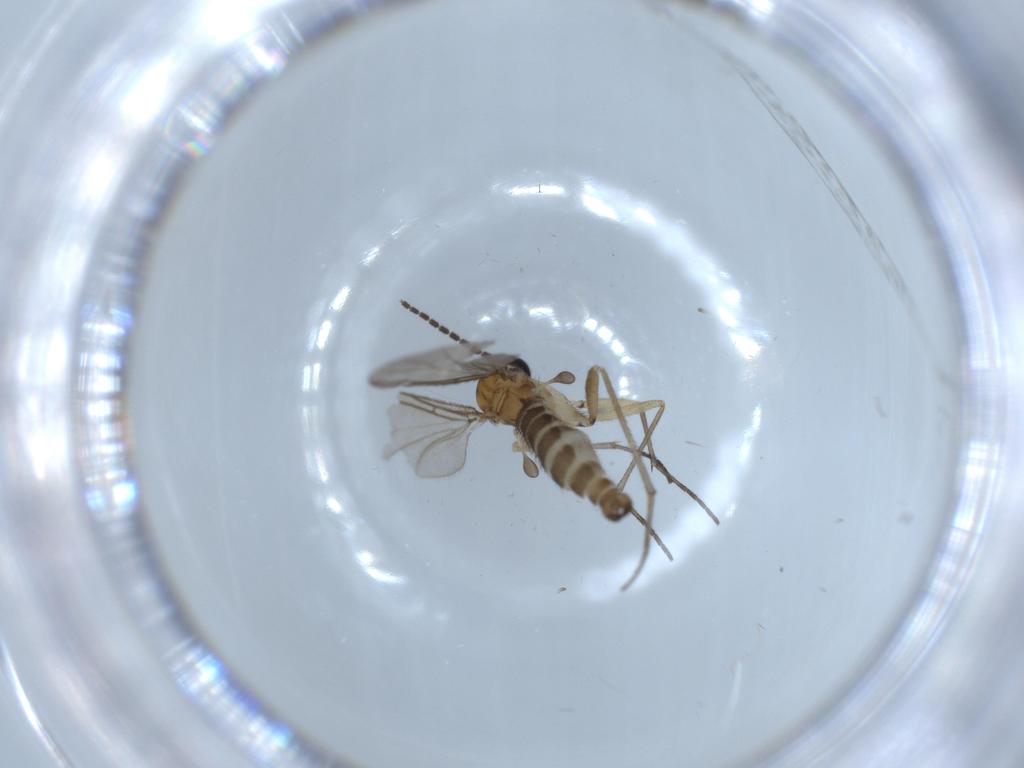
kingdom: Animalia
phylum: Arthropoda
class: Insecta
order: Diptera
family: Sciaridae
